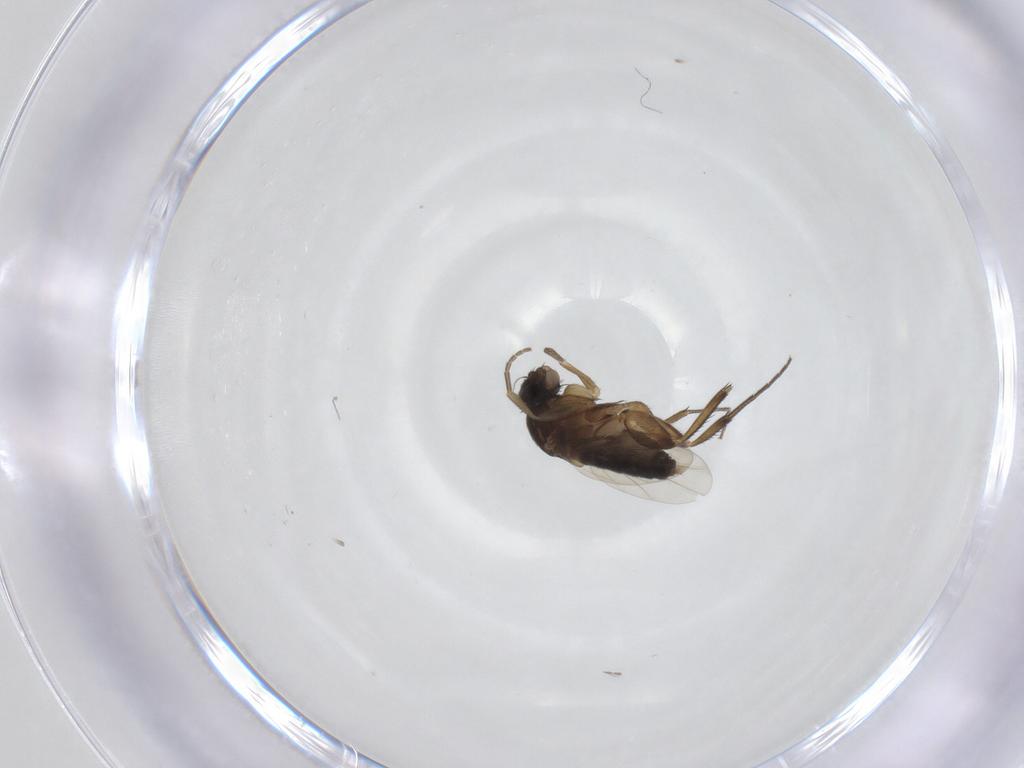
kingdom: Animalia
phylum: Arthropoda
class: Insecta
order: Diptera
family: Phoridae
